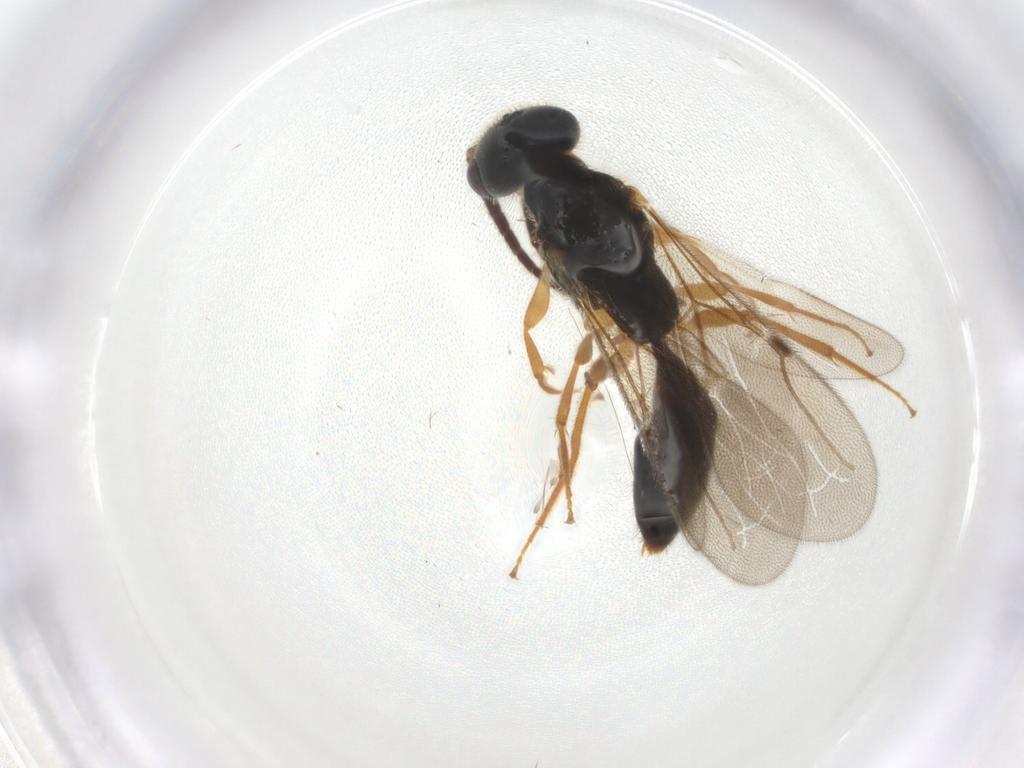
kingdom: Animalia
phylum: Arthropoda
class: Insecta
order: Hymenoptera
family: Bethylidae
